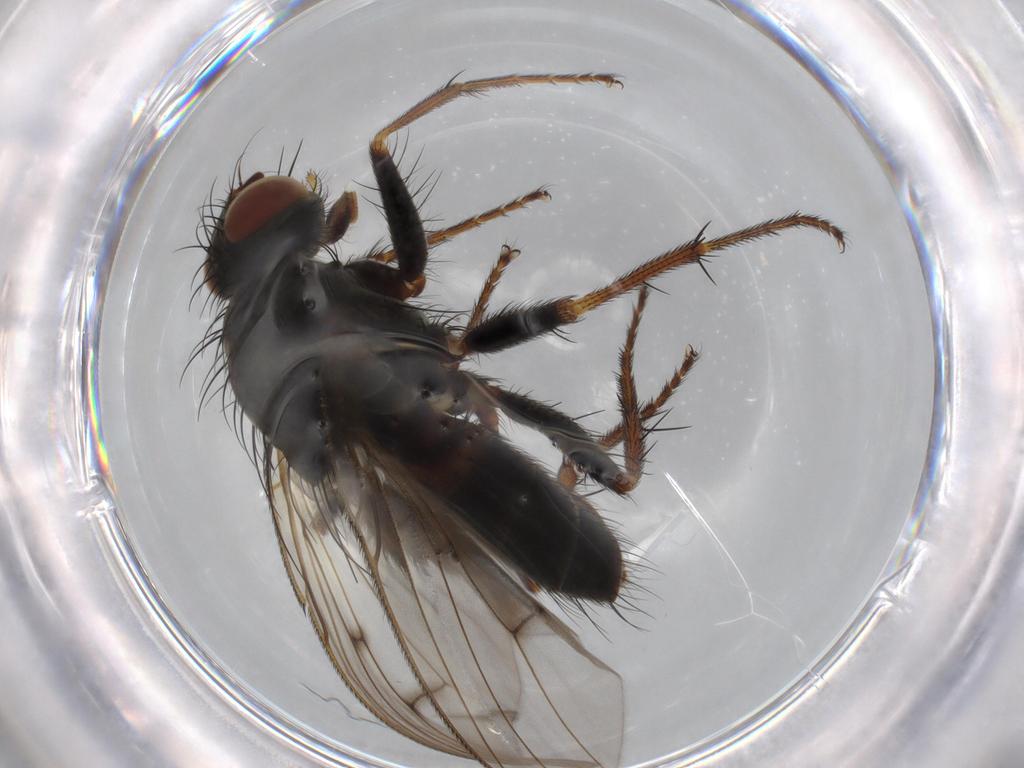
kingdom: Animalia
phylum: Arthropoda
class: Insecta
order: Diptera
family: Muscidae
